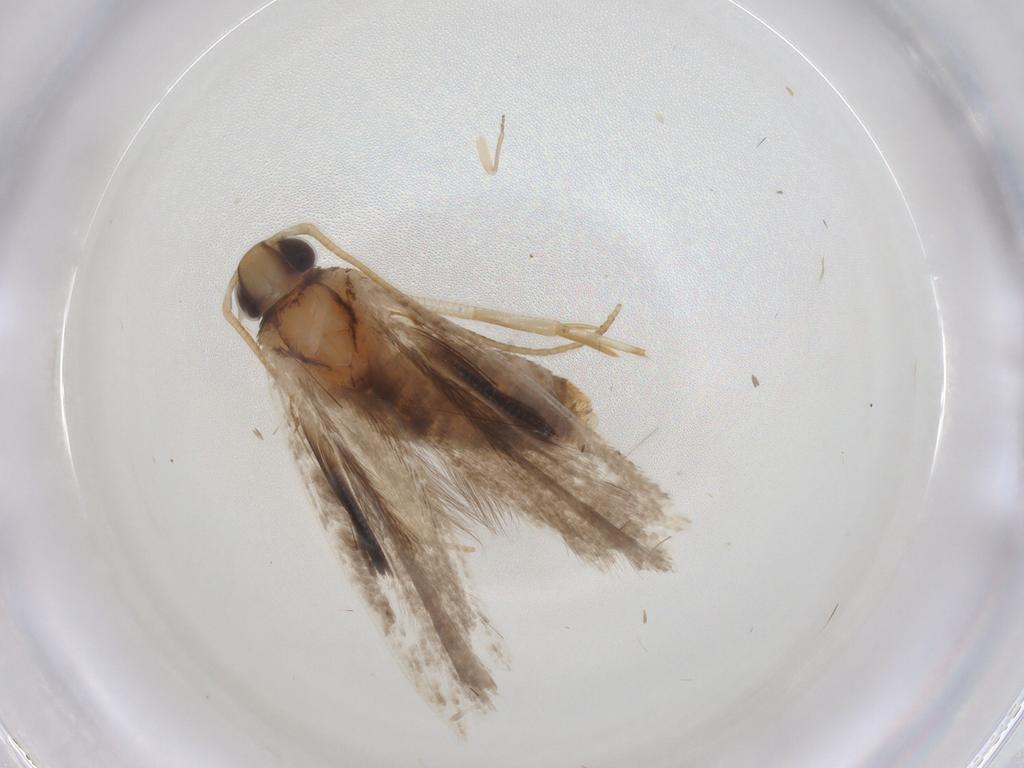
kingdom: Animalia
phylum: Arthropoda
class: Insecta
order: Lepidoptera
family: Gelechiidae
